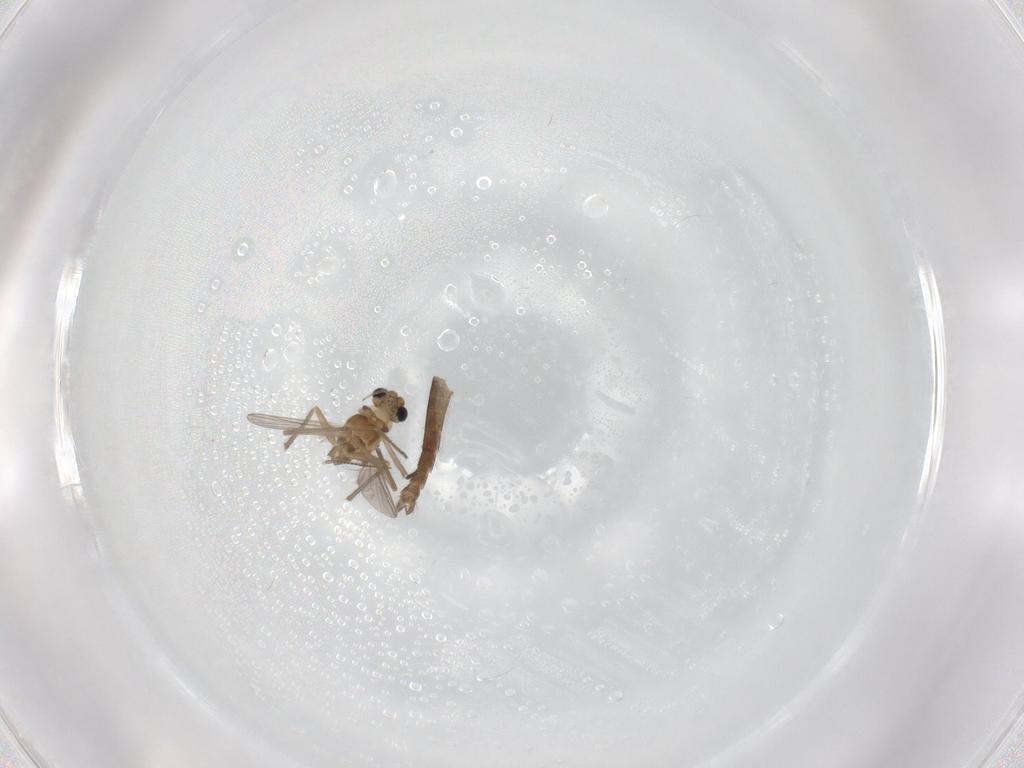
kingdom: Animalia
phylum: Arthropoda
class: Insecta
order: Diptera
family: Chironomidae
